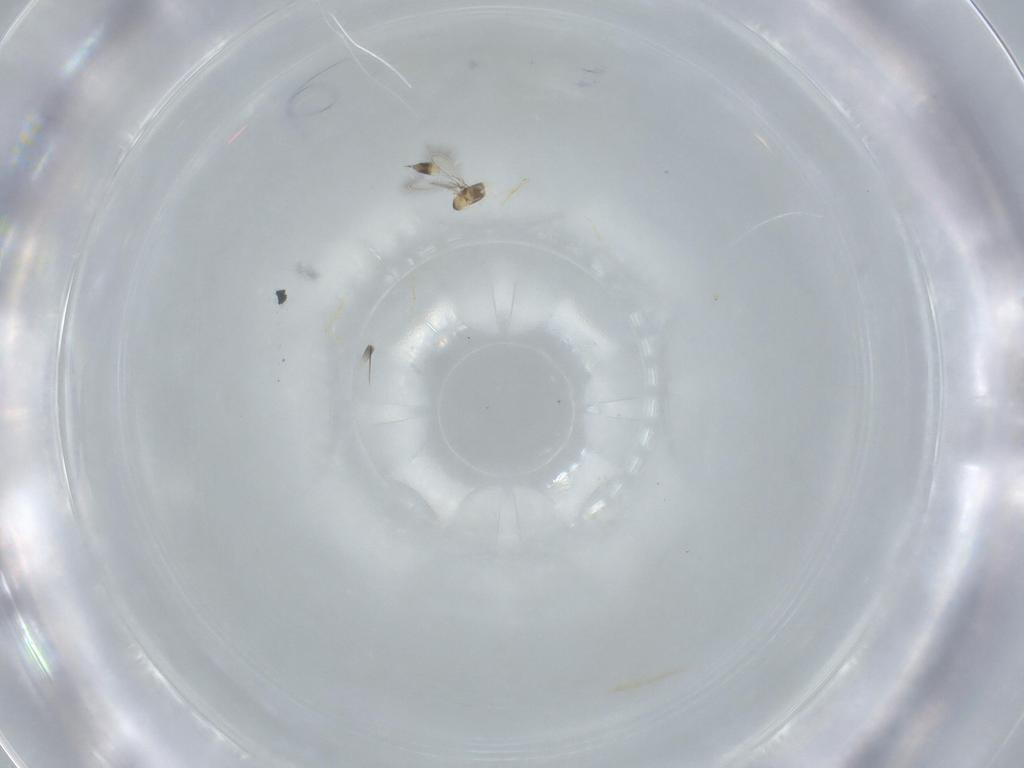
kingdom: Animalia
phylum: Arthropoda
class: Insecta
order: Hymenoptera
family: Mymaridae
